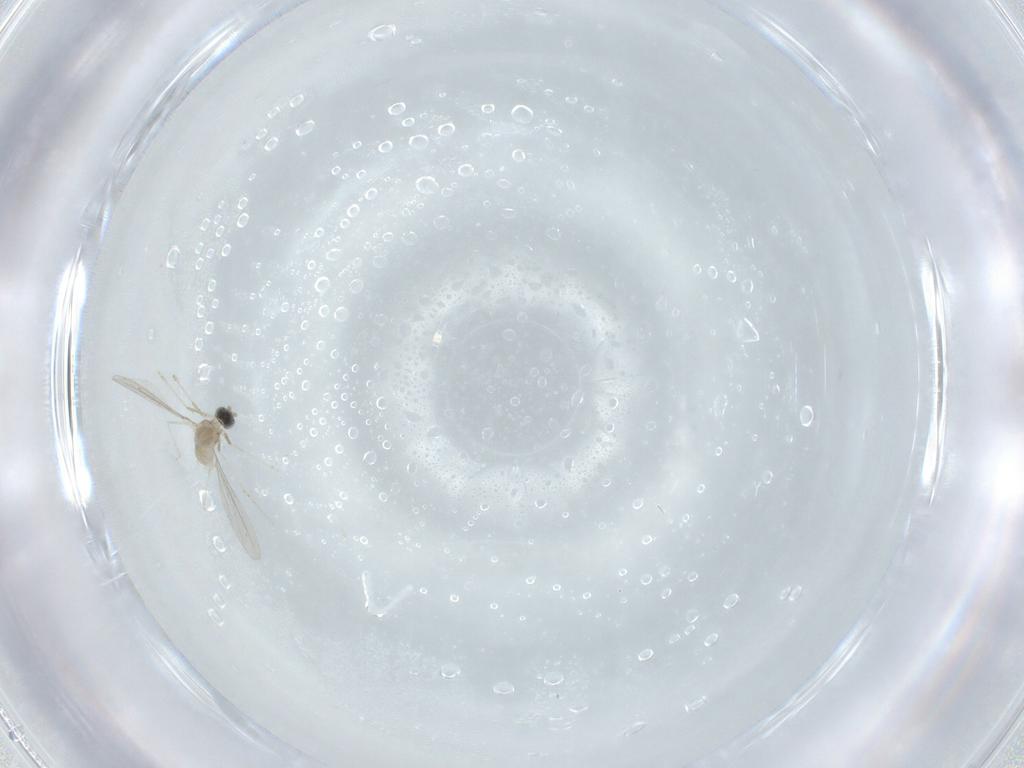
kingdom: Animalia
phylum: Arthropoda
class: Insecta
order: Diptera
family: Cecidomyiidae
